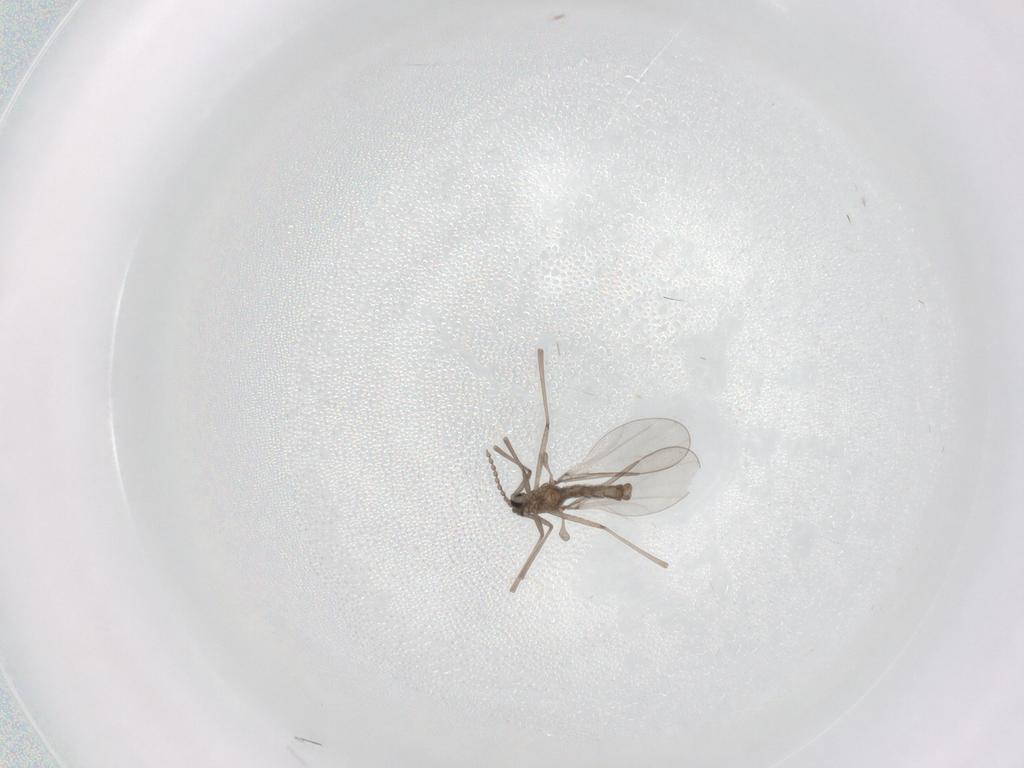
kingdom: Animalia
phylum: Arthropoda
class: Insecta
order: Diptera
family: Cecidomyiidae
